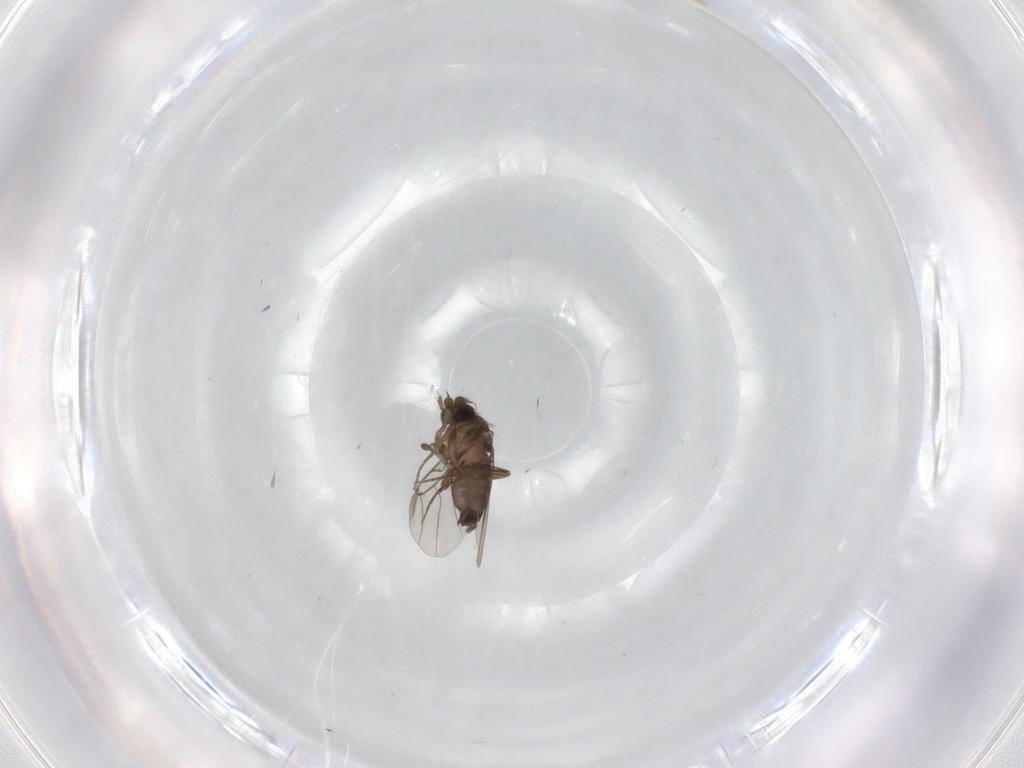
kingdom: Animalia
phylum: Arthropoda
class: Insecta
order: Diptera
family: Phoridae
